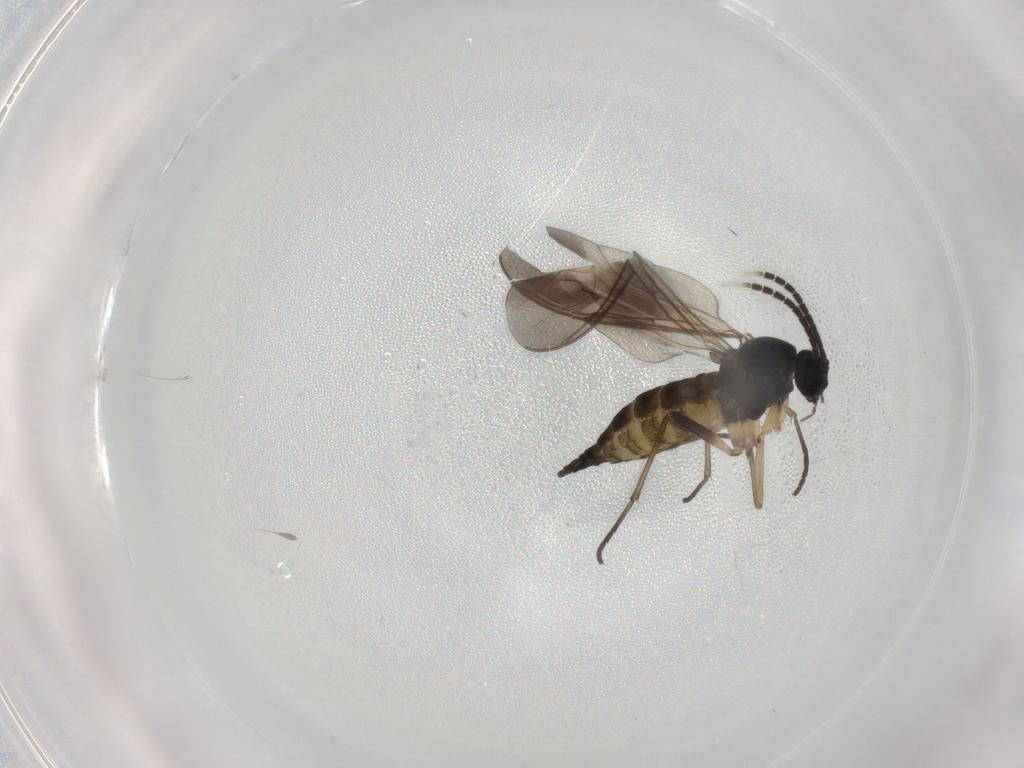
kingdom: Animalia
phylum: Arthropoda
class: Insecta
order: Diptera
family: Sciaridae
